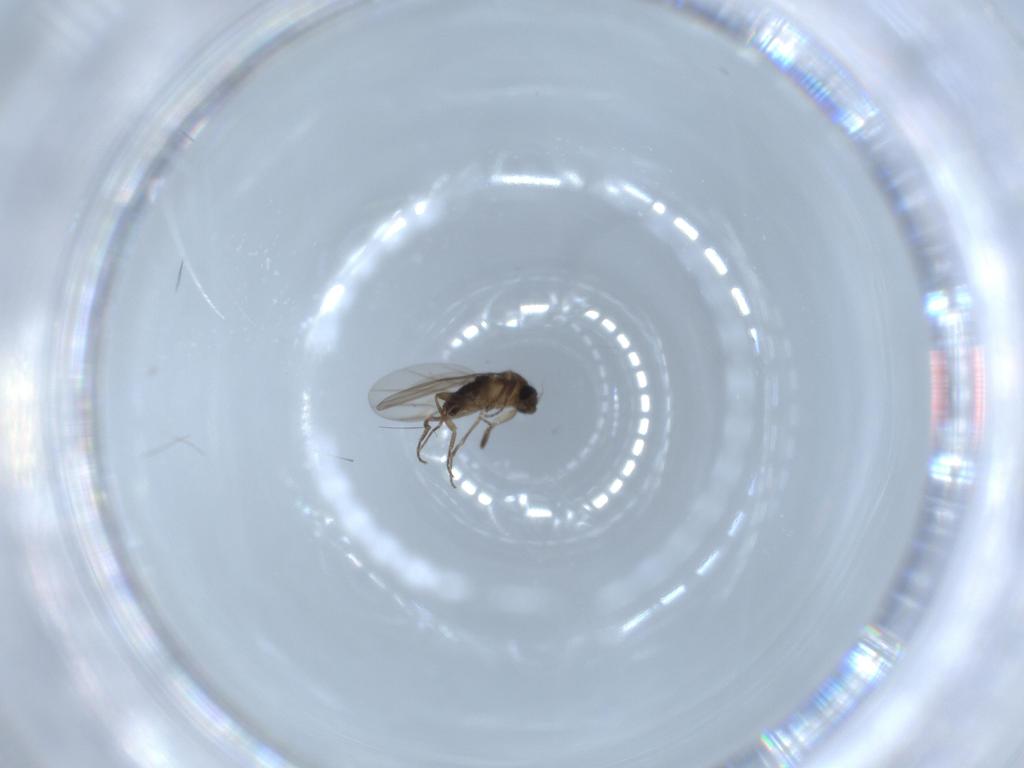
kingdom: Animalia
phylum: Arthropoda
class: Insecta
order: Diptera
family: Phoridae
